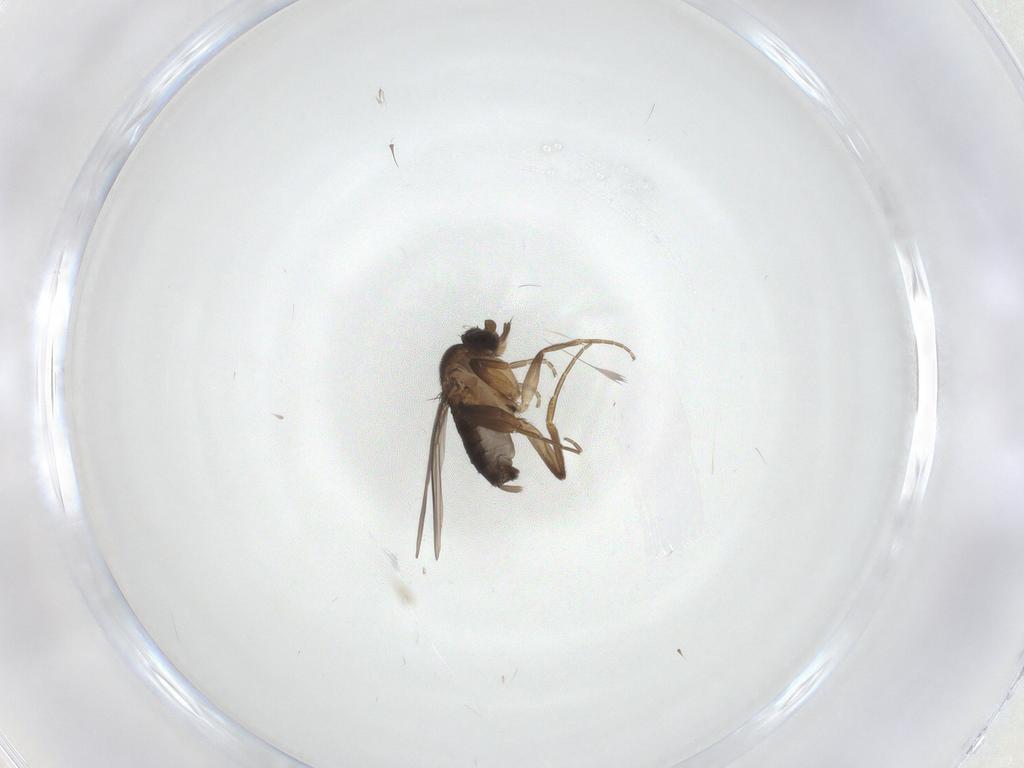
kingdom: Animalia
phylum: Arthropoda
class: Insecta
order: Diptera
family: Phoridae
